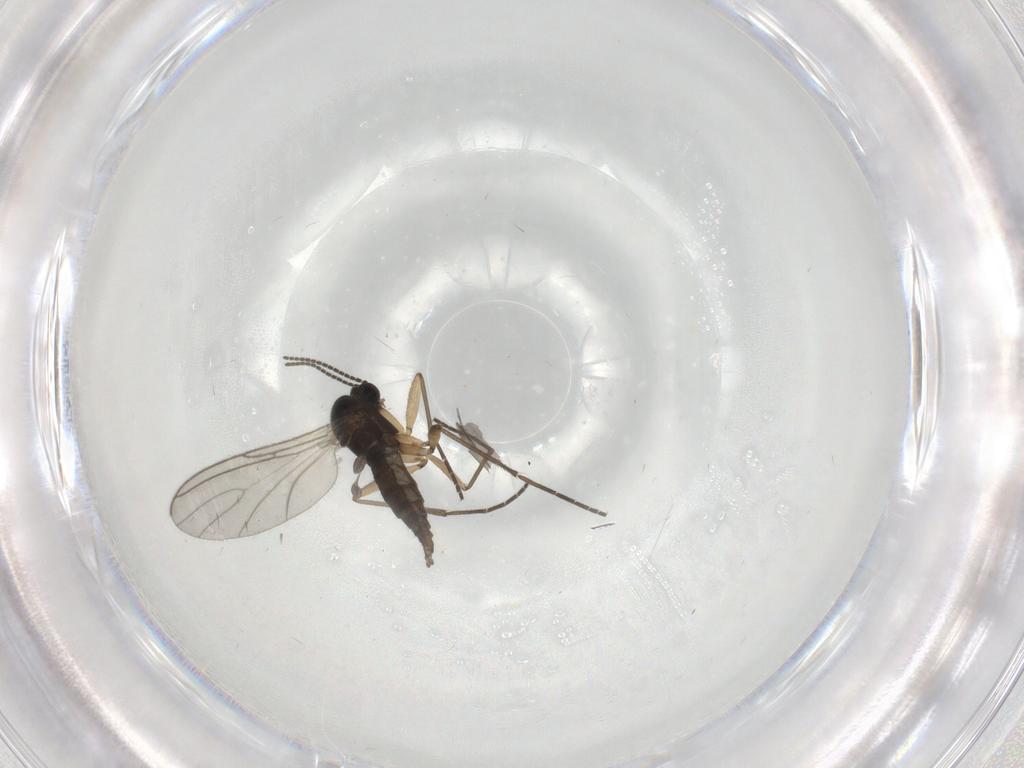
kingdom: Animalia
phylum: Arthropoda
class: Insecta
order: Diptera
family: Sciaridae
